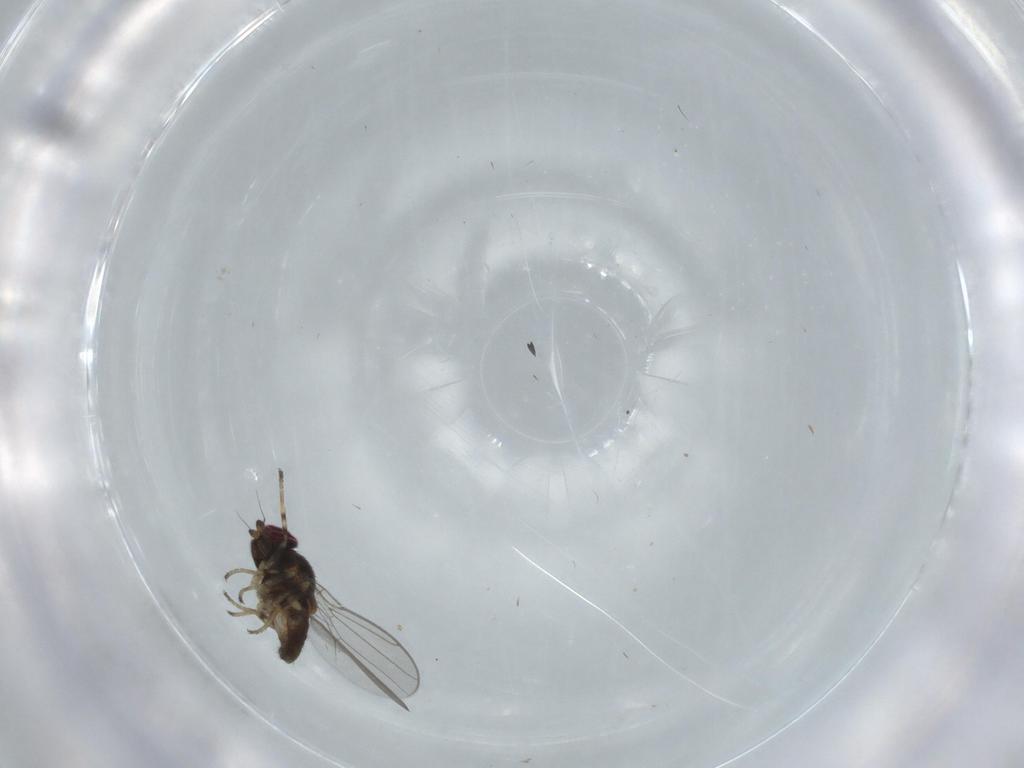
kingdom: Animalia
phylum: Arthropoda
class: Insecta
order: Diptera
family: Chloropidae
